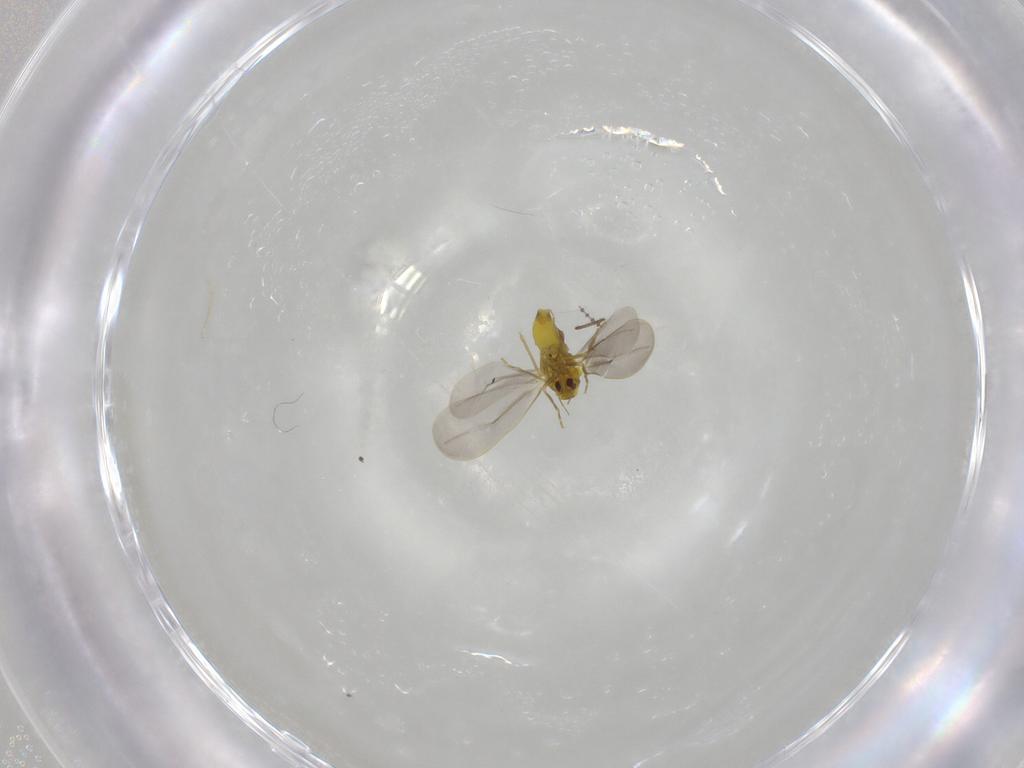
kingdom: Animalia
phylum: Arthropoda
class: Insecta
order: Hemiptera
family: Aleyrodidae
